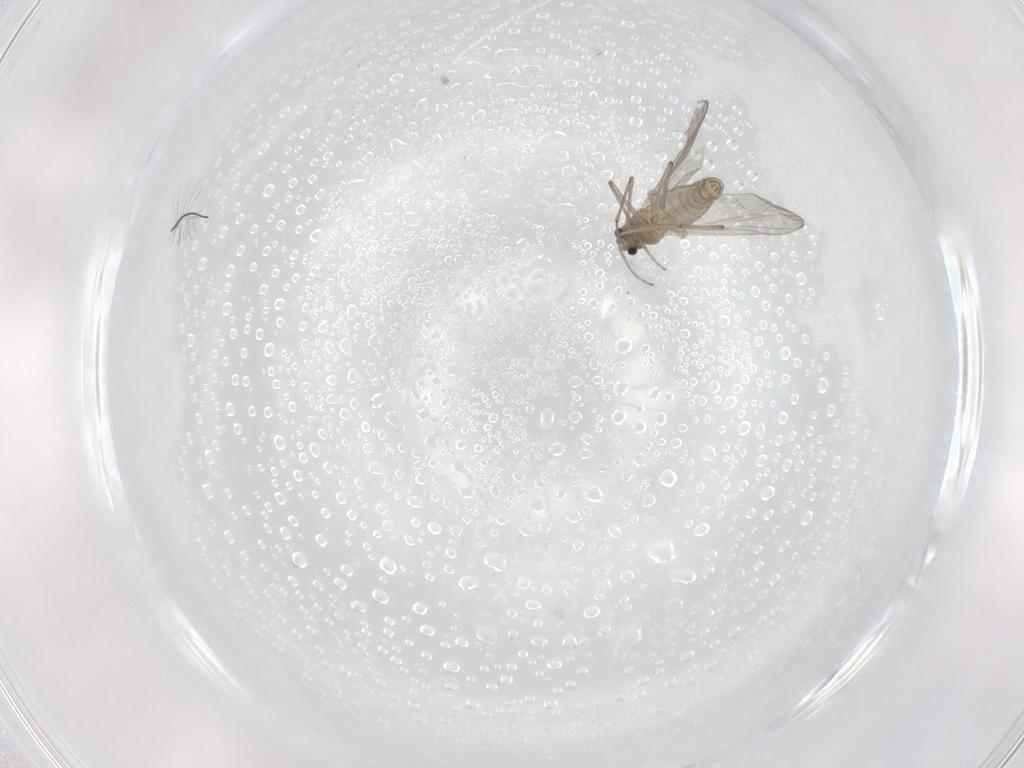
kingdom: Animalia
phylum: Arthropoda
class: Insecta
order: Diptera
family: Chironomidae
